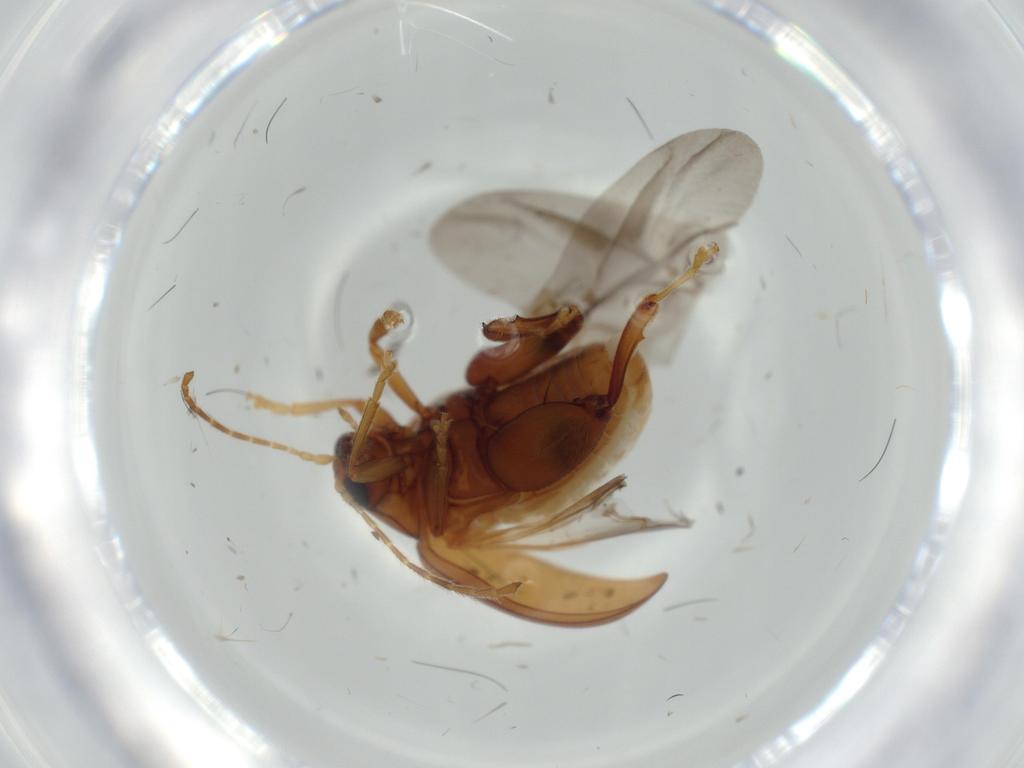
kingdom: Animalia
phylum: Arthropoda
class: Insecta
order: Coleoptera
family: Chrysomelidae
